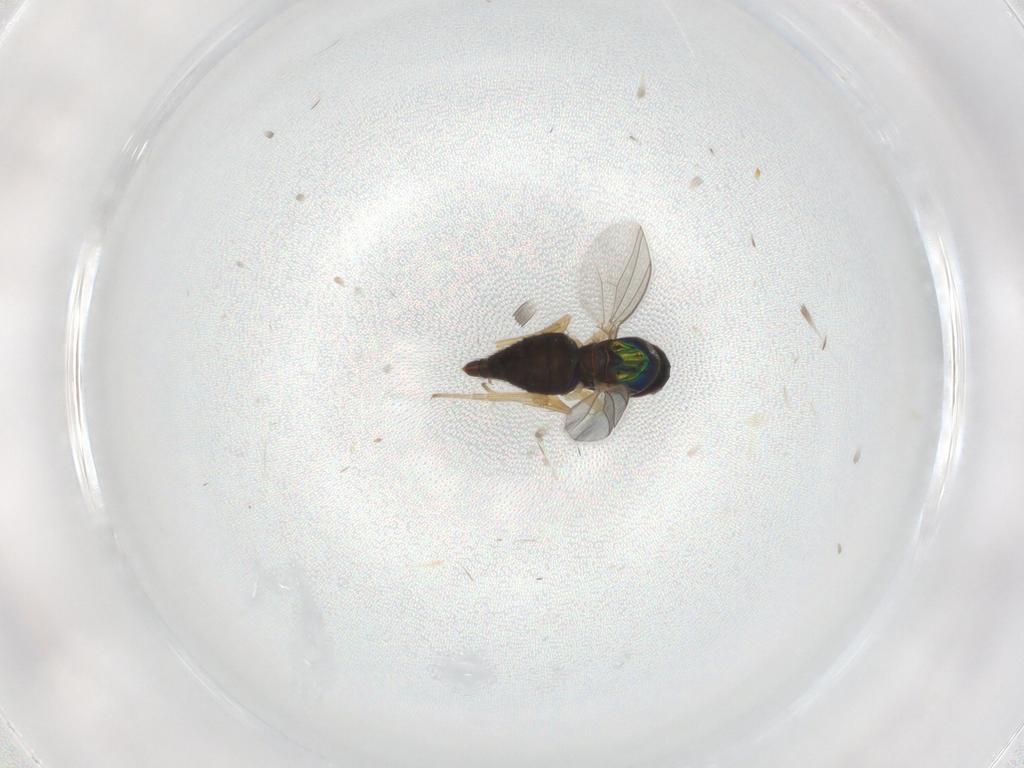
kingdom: Animalia
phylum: Arthropoda
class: Insecta
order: Diptera
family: Dolichopodidae
